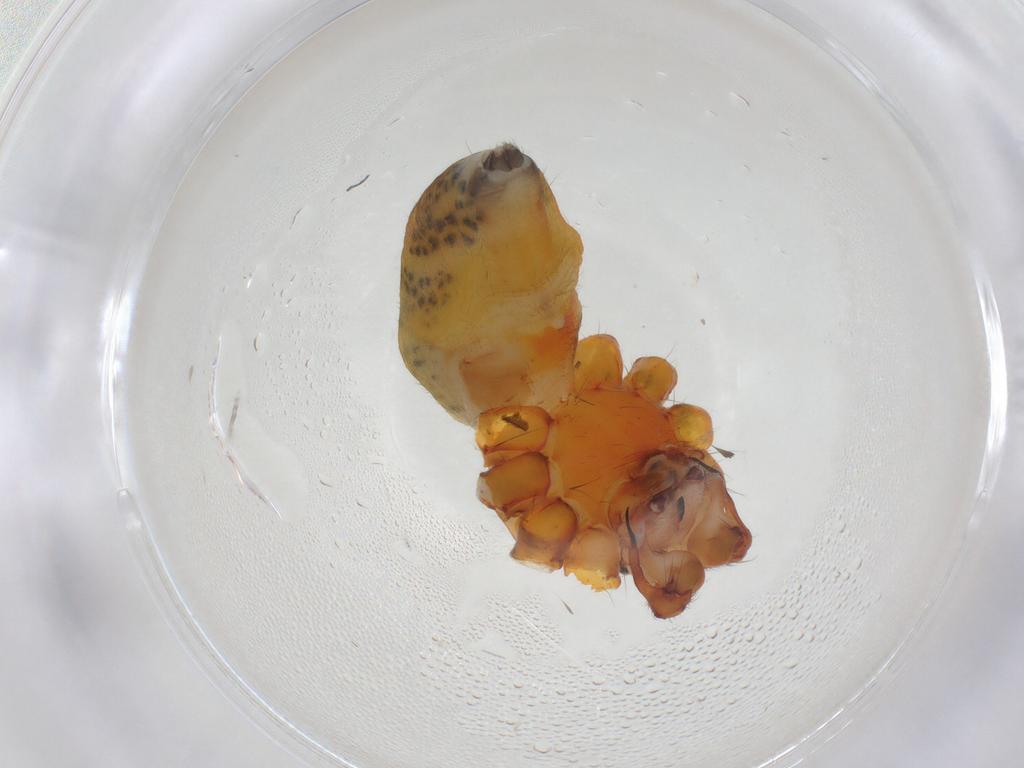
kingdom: Animalia
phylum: Arthropoda
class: Arachnida
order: Araneae
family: Pholcidae
